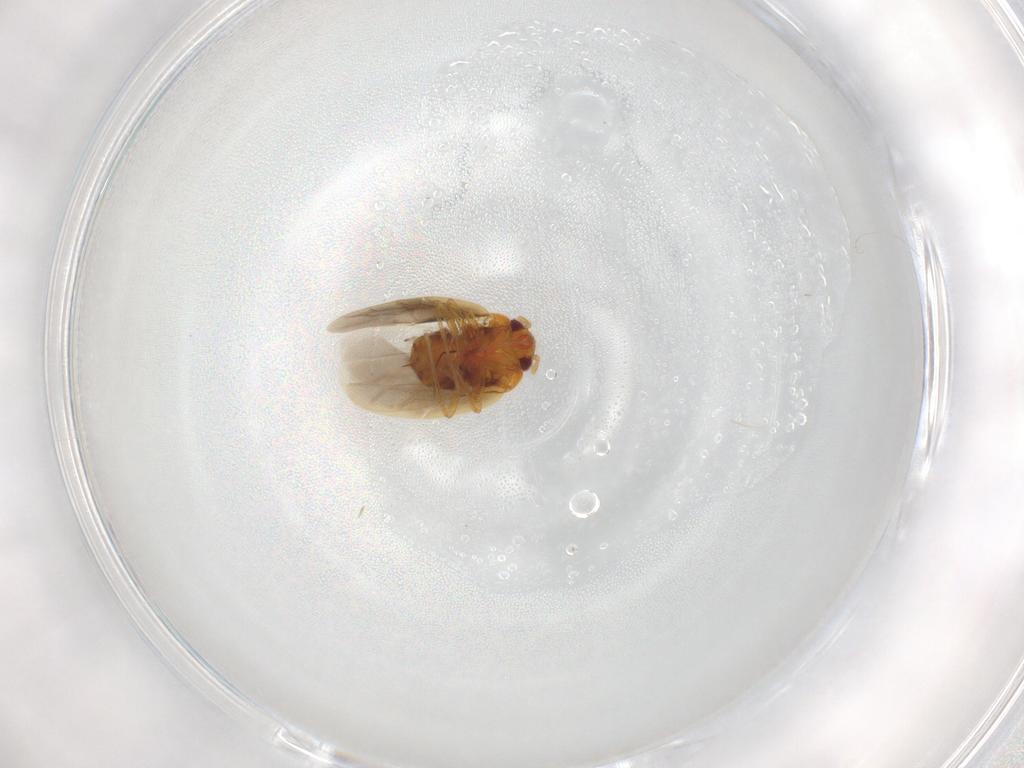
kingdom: Animalia
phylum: Arthropoda
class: Insecta
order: Hemiptera
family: Ceratocombidae
